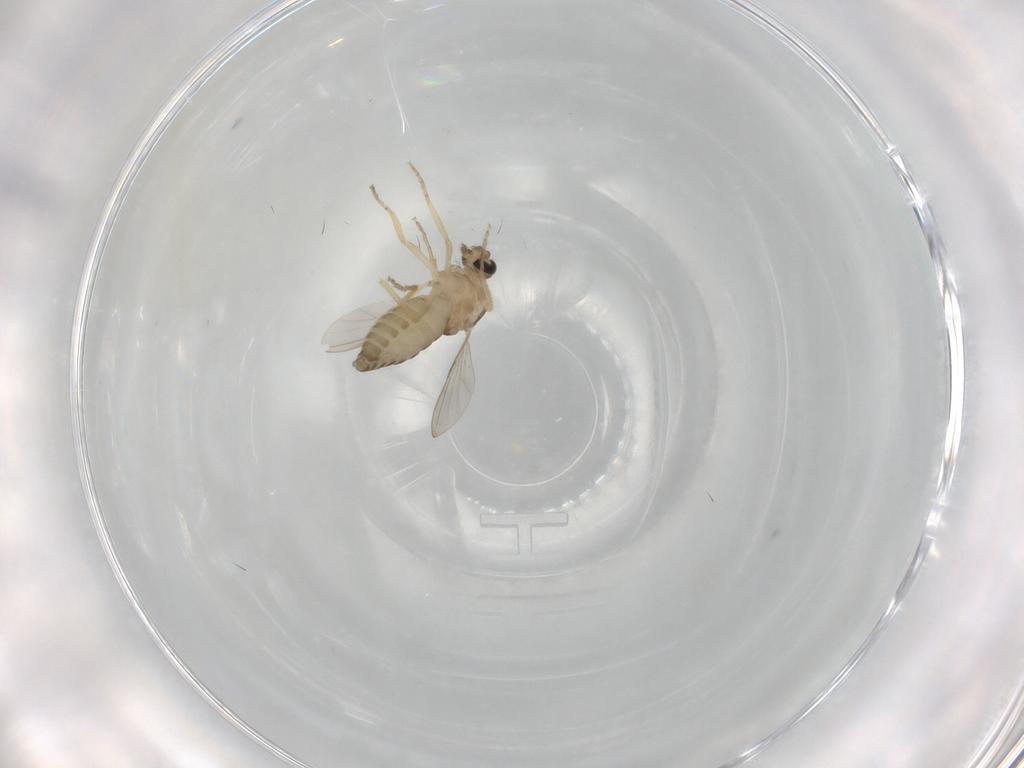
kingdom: Animalia
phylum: Arthropoda
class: Insecta
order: Diptera
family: Ceratopogonidae
